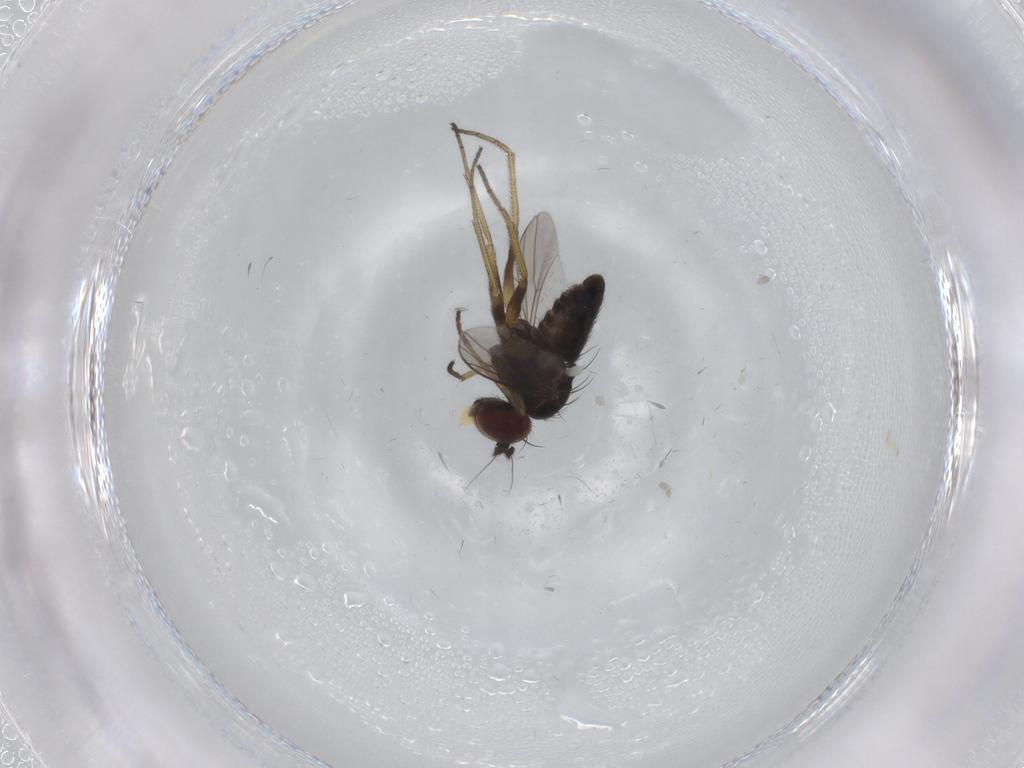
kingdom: Animalia
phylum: Arthropoda
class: Insecta
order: Diptera
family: Dolichopodidae
